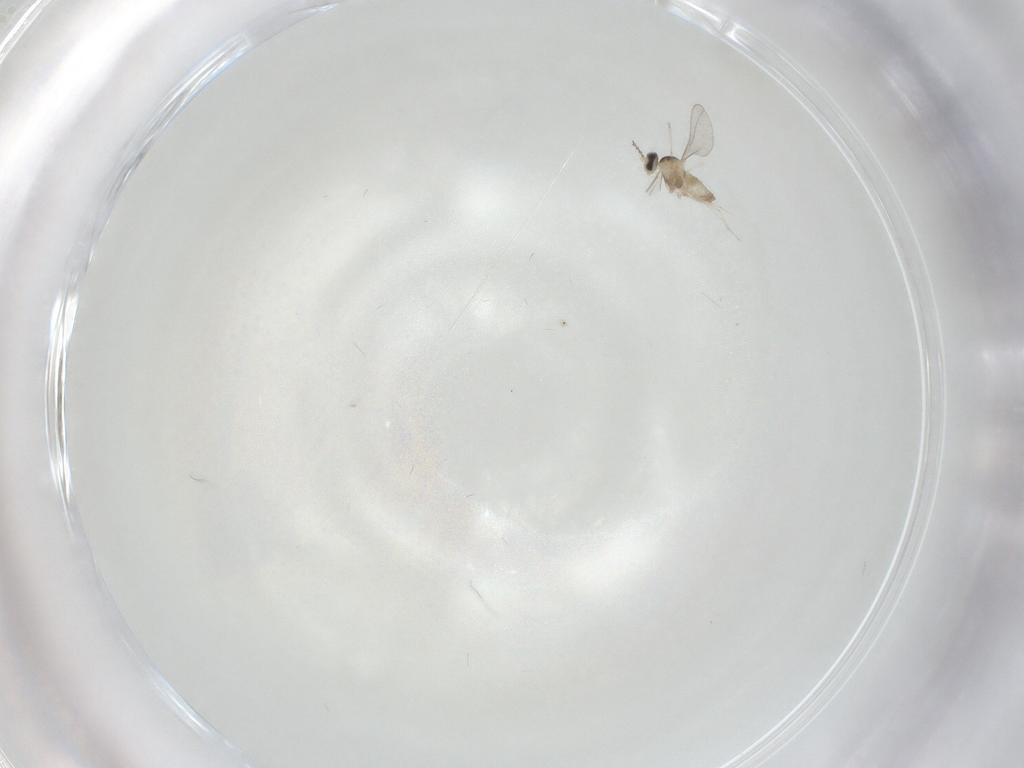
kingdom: Animalia
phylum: Arthropoda
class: Insecta
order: Diptera
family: Cecidomyiidae
